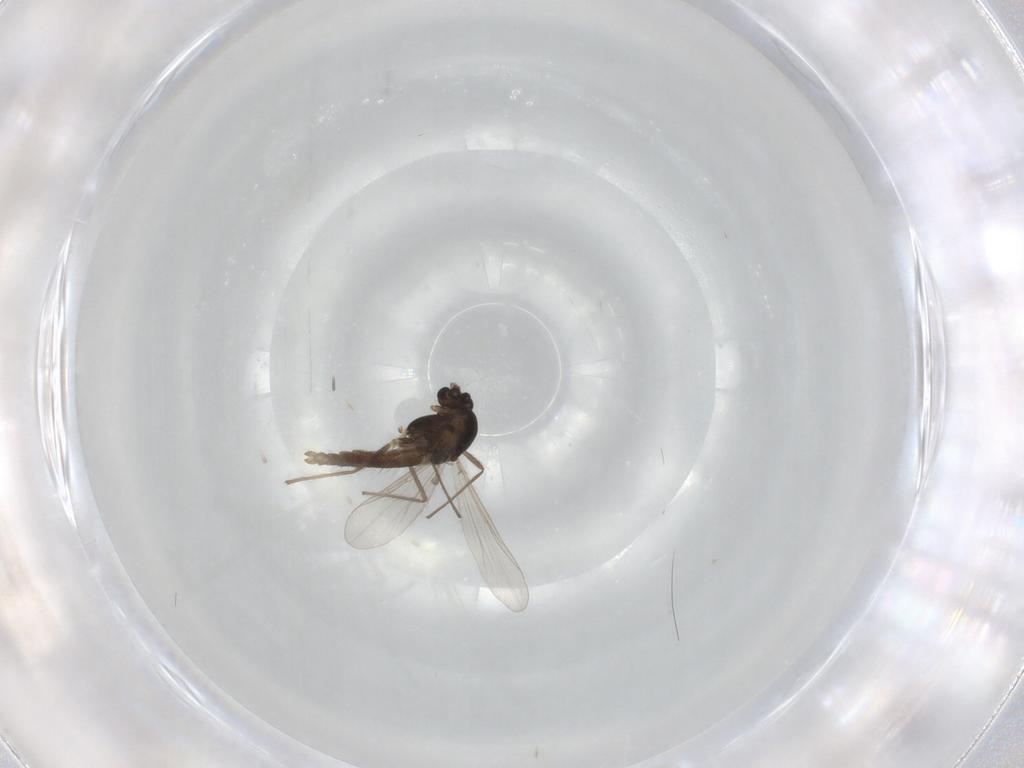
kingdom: Animalia
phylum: Arthropoda
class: Insecta
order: Diptera
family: Chironomidae
